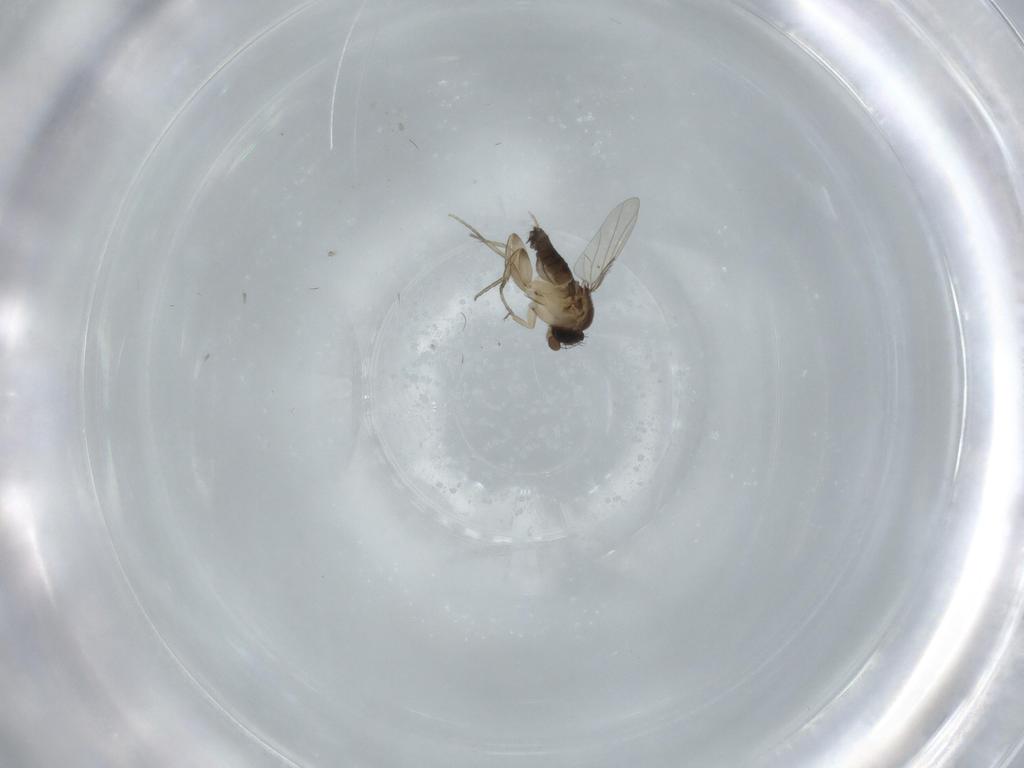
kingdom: Animalia
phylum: Arthropoda
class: Insecta
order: Diptera
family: Phoridae
